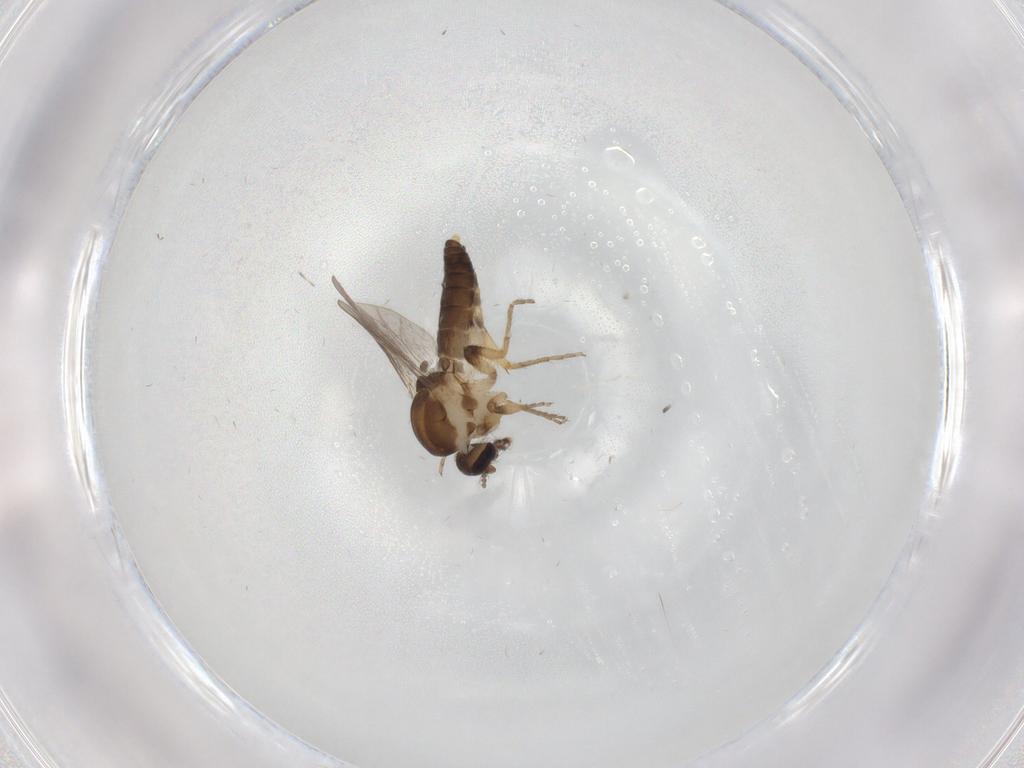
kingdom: Animalia
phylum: Arthropoda
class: Insecta
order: Diptera
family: Ceratopogonidae
